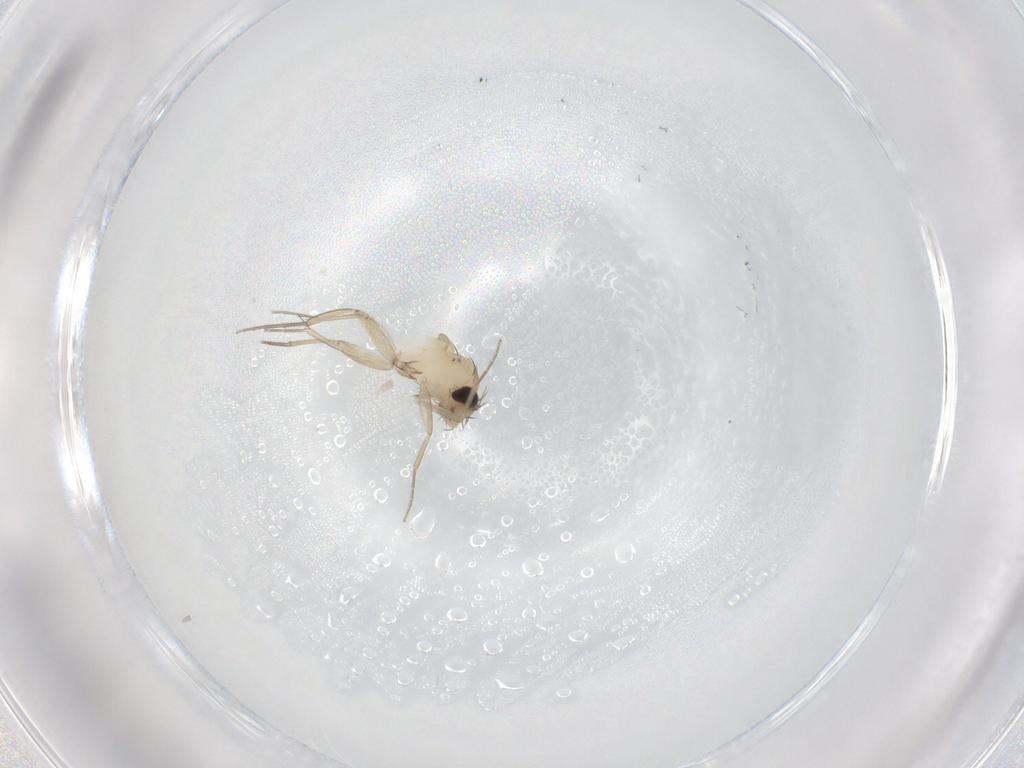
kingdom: Animalia
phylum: Arthropoda
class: Insecta
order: Diptera
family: Phoridae
